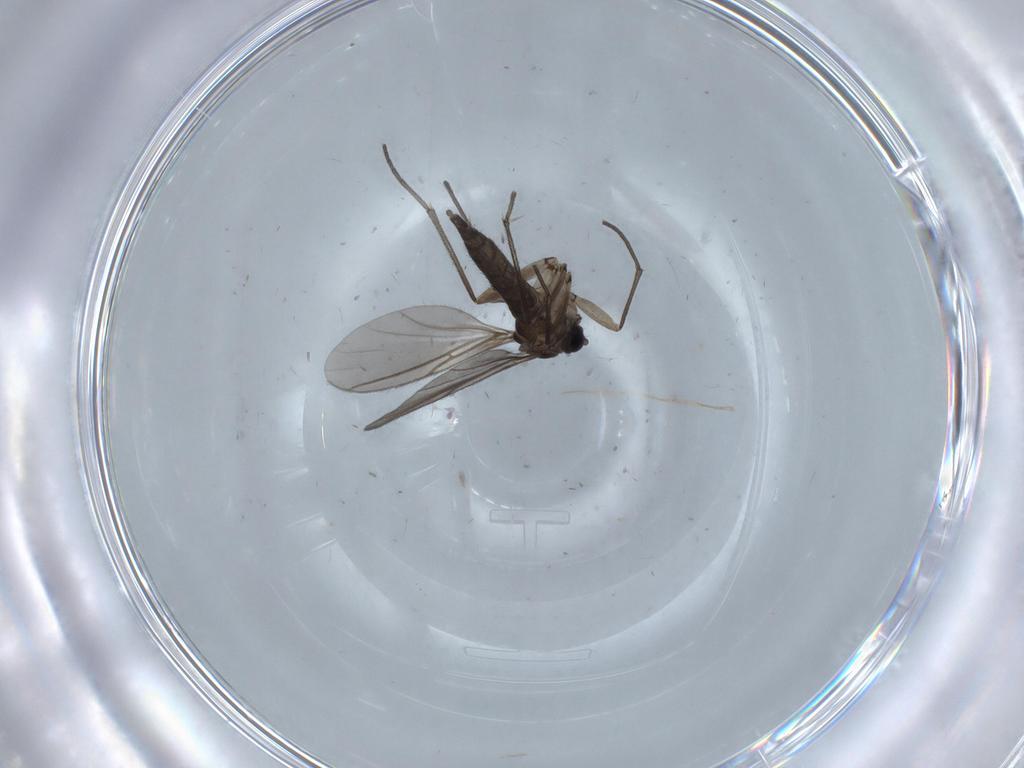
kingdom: Animalia
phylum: Arthropoda
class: Insecta
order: Diptera
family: Sciaridae
